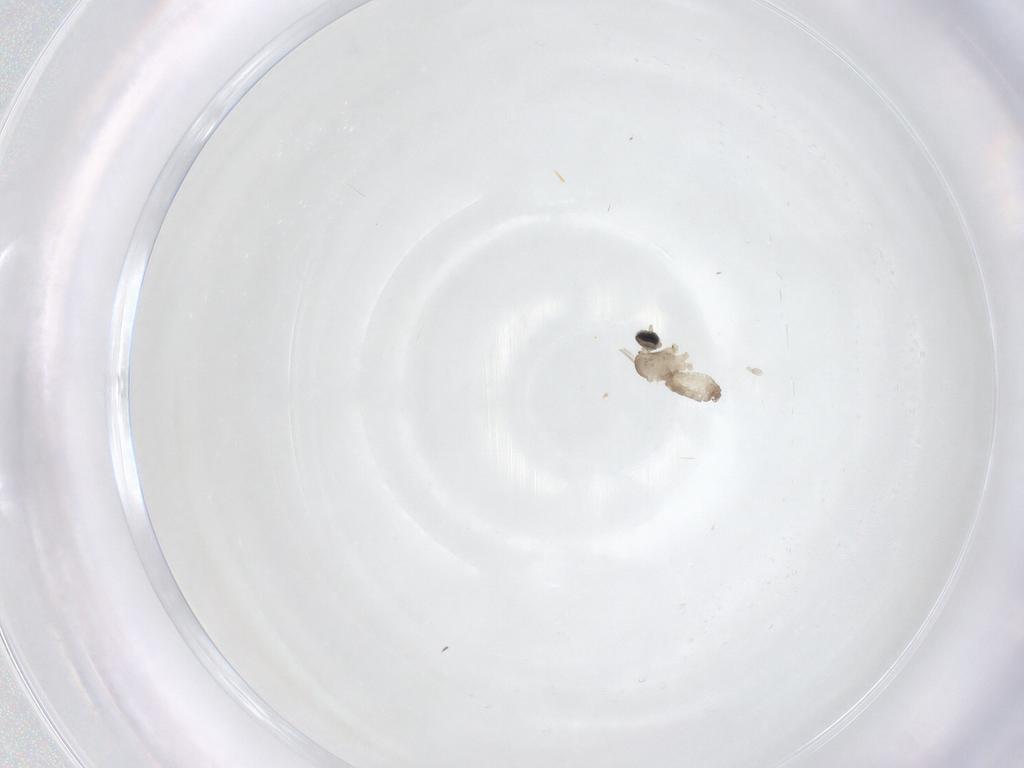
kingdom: Animalia
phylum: Arthropoda
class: Insecta
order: Diptera
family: Cecidomyiidae
